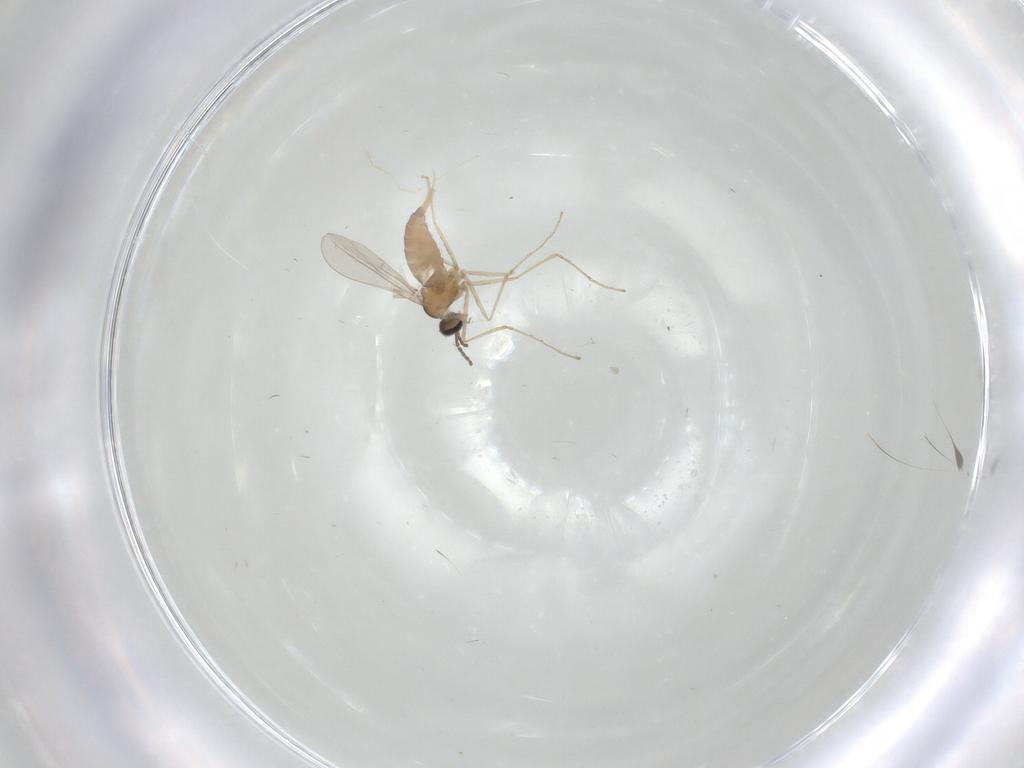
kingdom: Animalia
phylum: Arthropoda
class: Insecta
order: Diptera
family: Cecidomyiidae
